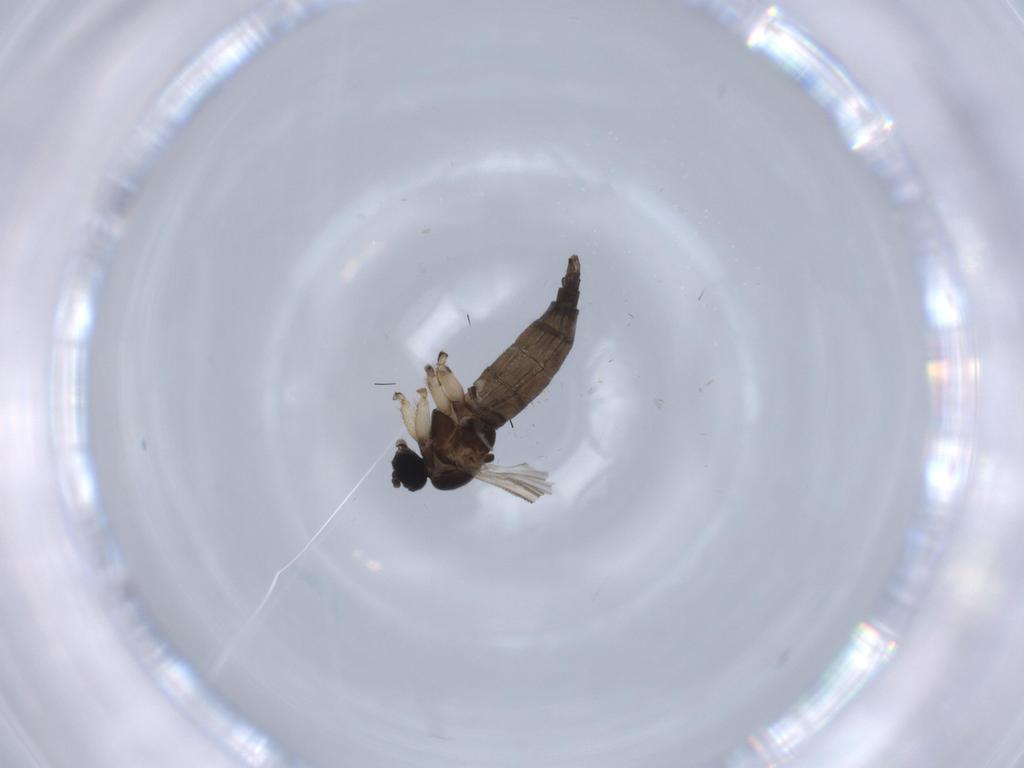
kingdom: Animalia
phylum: Arthropoda
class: Insecta
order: Diptera
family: Sciaridae
